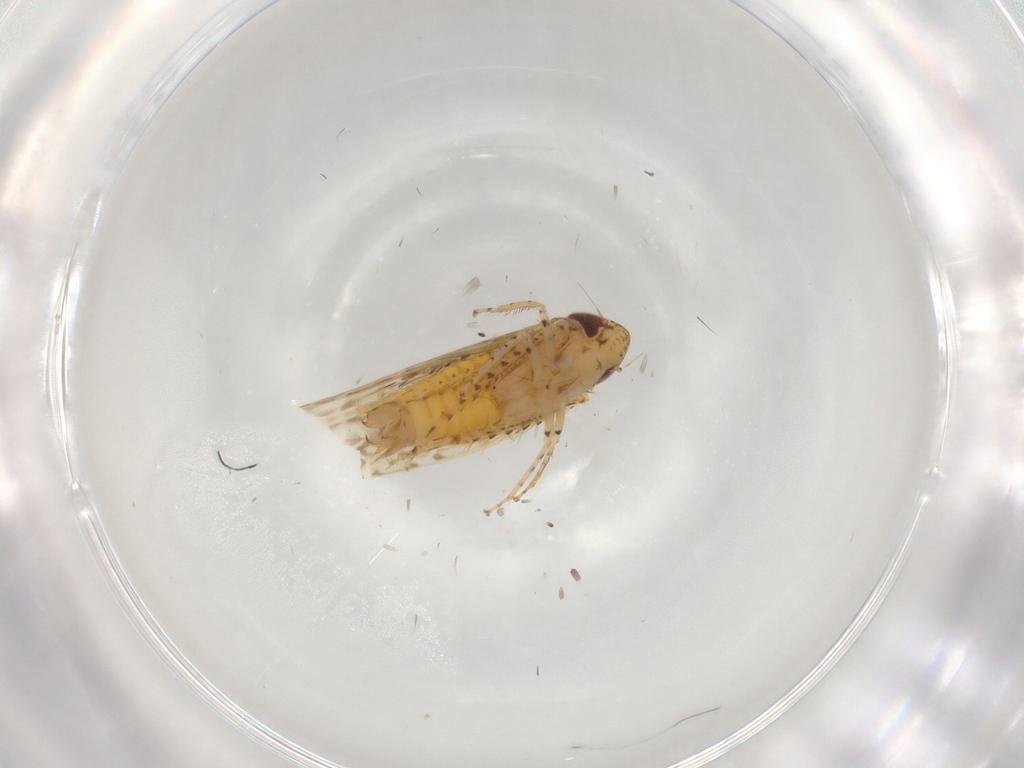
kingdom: Animalia
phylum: Arthropoda
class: Insecta
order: Hemiptera
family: Cicadellidae
